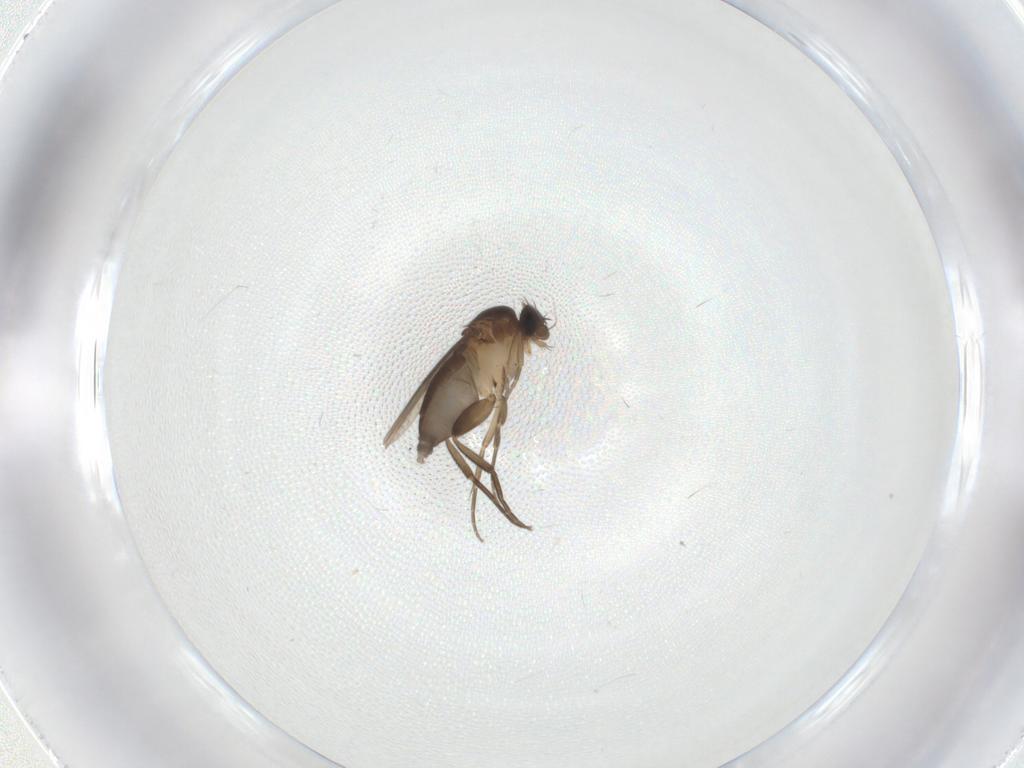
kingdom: Animalia
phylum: Arthropoda
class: Insecta
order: Diptera
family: Phoridae
